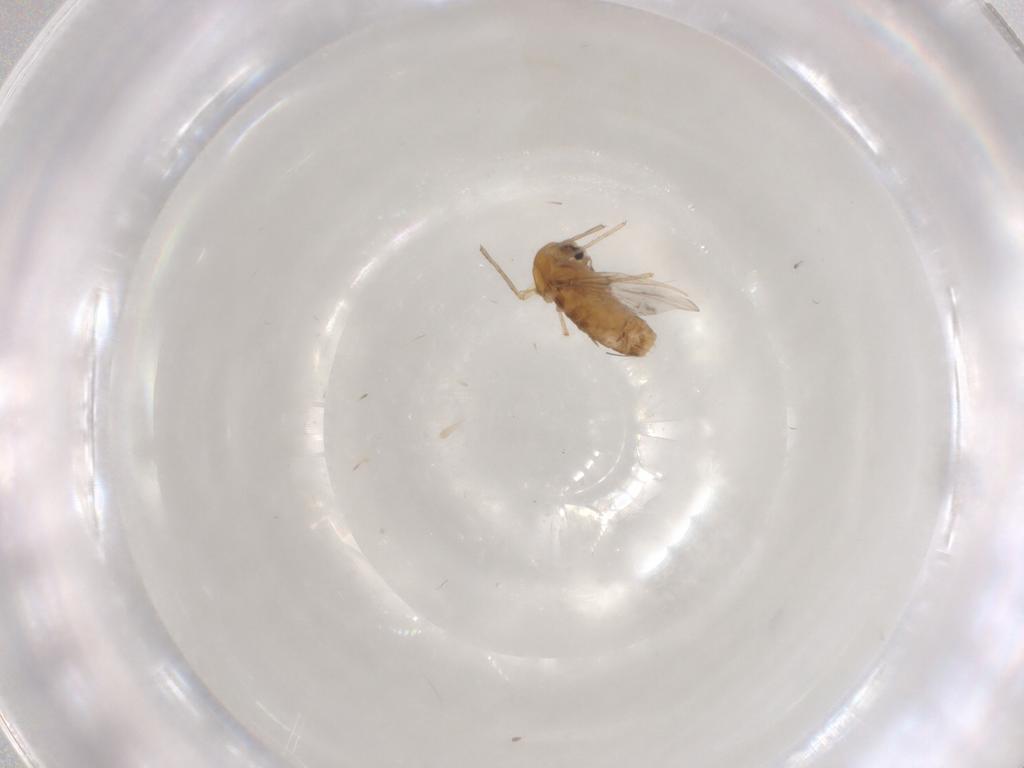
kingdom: Animalia
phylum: Arthropoda
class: Insecta
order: Diptera
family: Chironomidae
